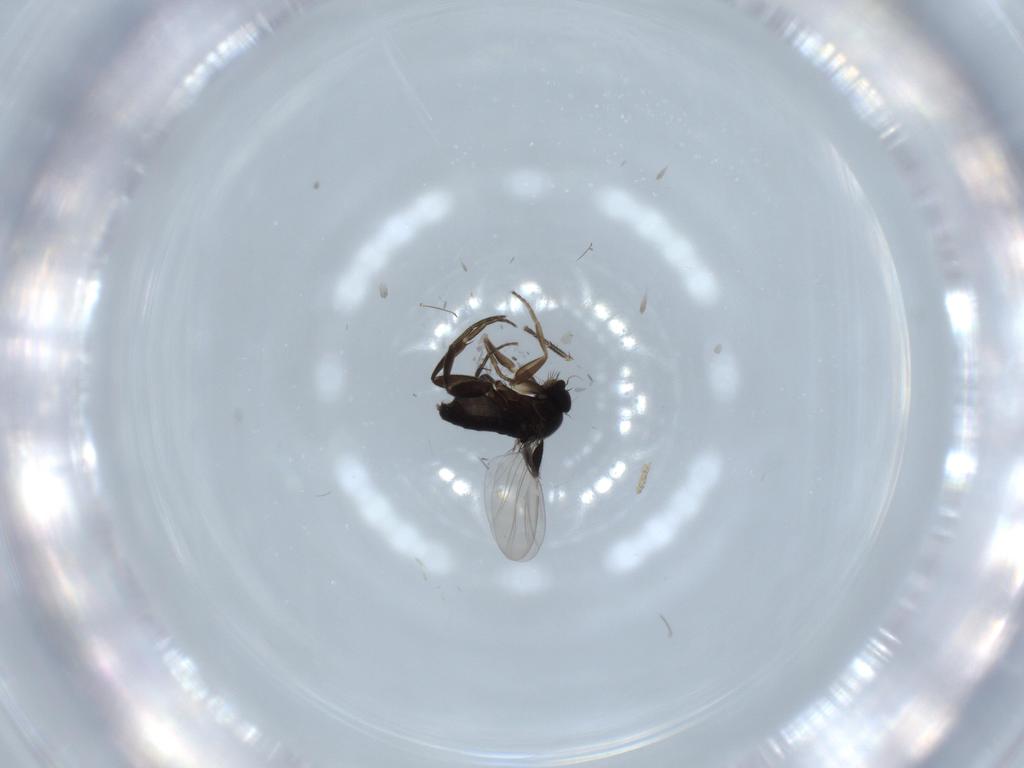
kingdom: Animalia
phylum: Arthropoda
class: Insecta
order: Diptera
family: Phoridae
